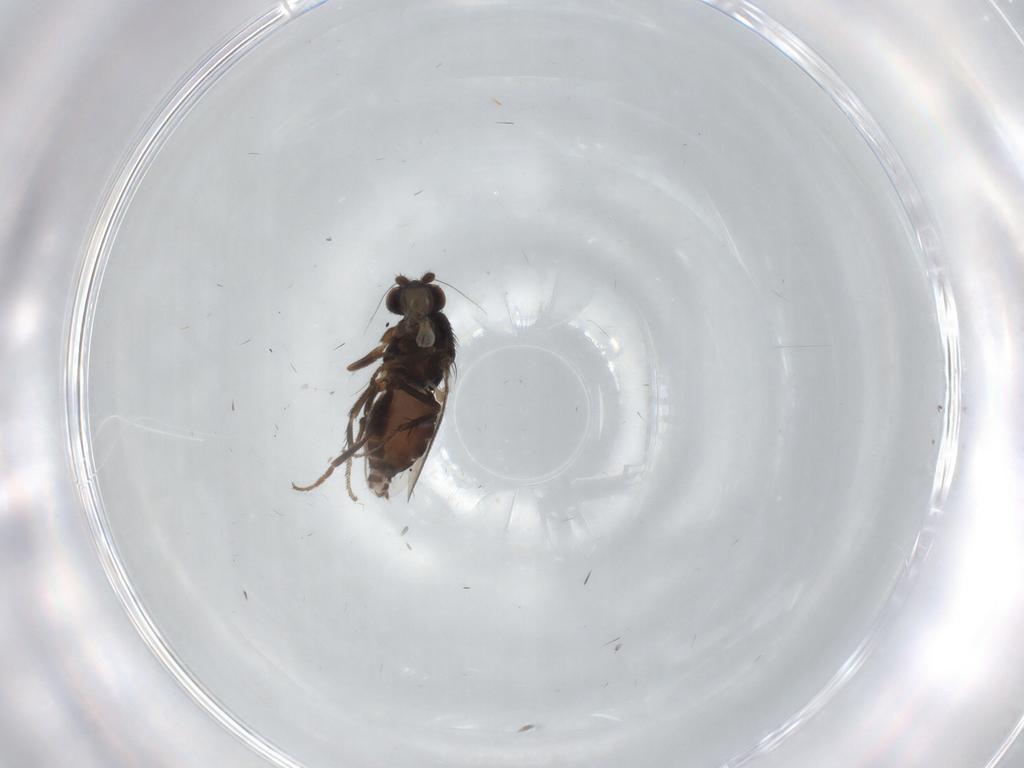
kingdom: Animalia
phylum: Arthropoda
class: Insecta
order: Diptera
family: Sphaeroceridae
